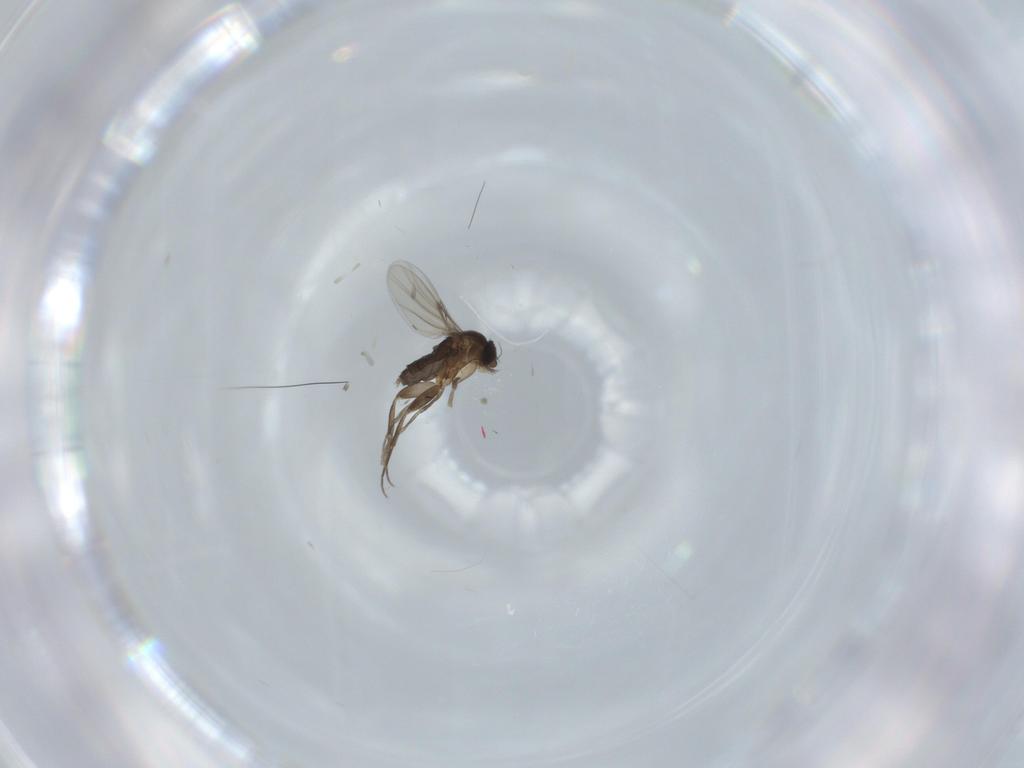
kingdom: Animalia
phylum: Arthropoda
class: Insecta
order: Diptera
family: Phoridae
